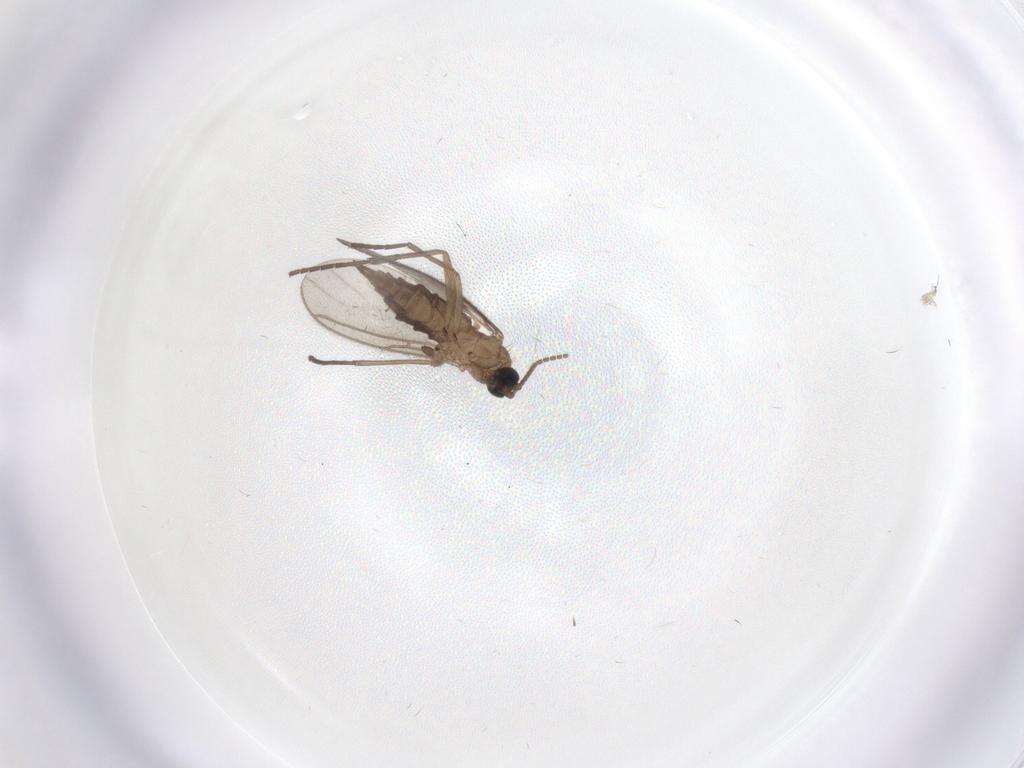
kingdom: Animalia
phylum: Arthropoda
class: Insecta
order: Diptera
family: Sciaridae
